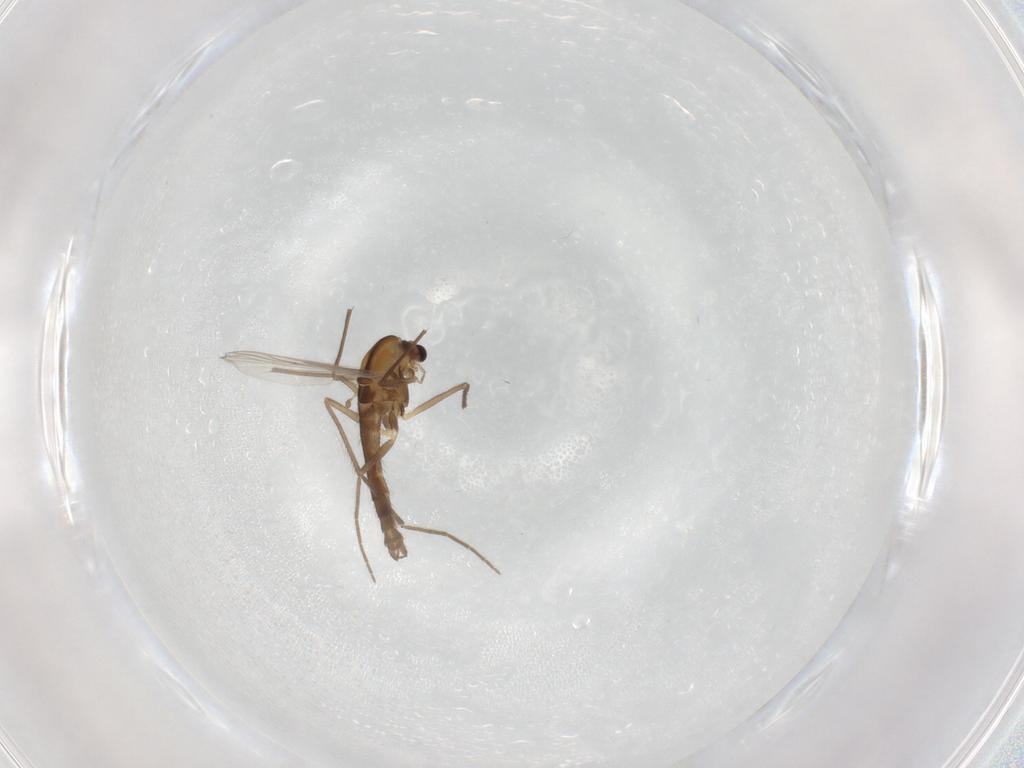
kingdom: Animalia
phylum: Arthropoda
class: Insecta
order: Diptera
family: Chironomidae
